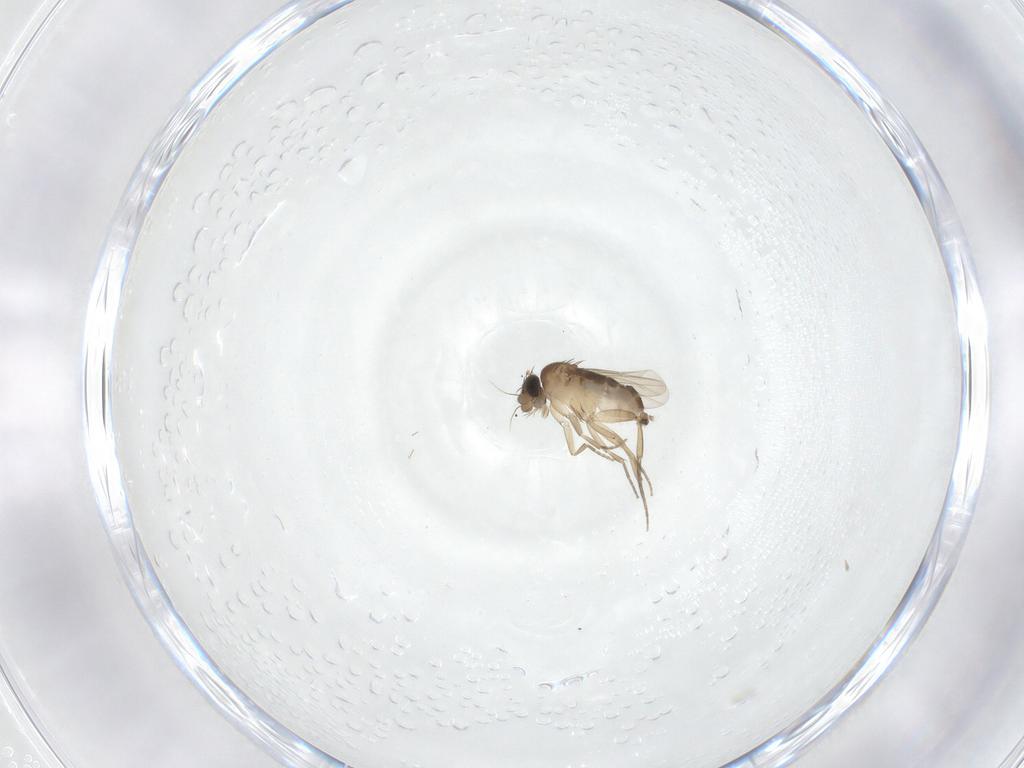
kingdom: Animalia
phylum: Arthropoda
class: Insecta
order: Diptera
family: Phoridae
